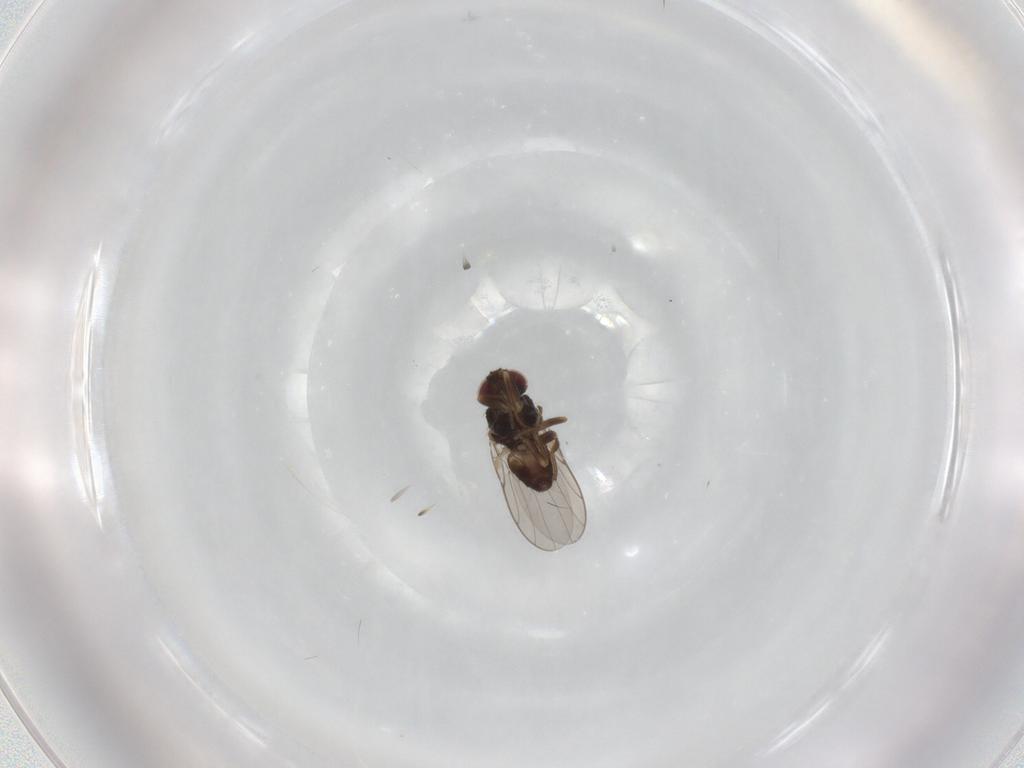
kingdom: Animalia
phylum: Arthropoda
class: Insecta
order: Diptera
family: Chloropidae
